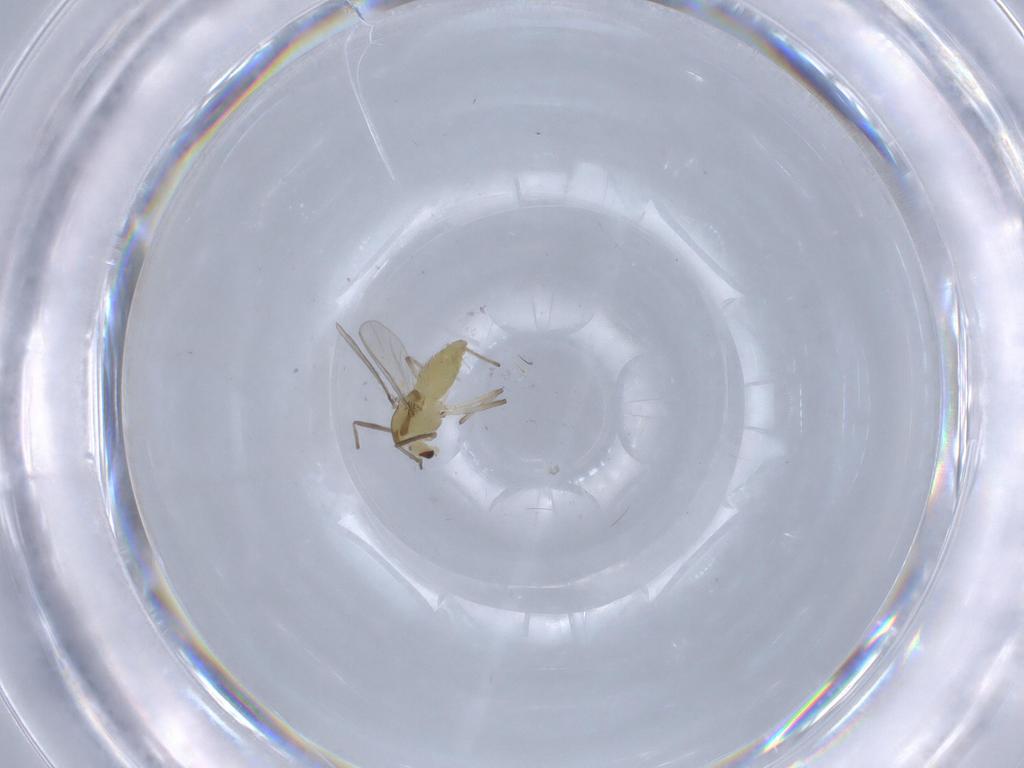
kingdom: Animalia
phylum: Arthropoda
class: Insecta
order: Diptera
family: Chironomidae
